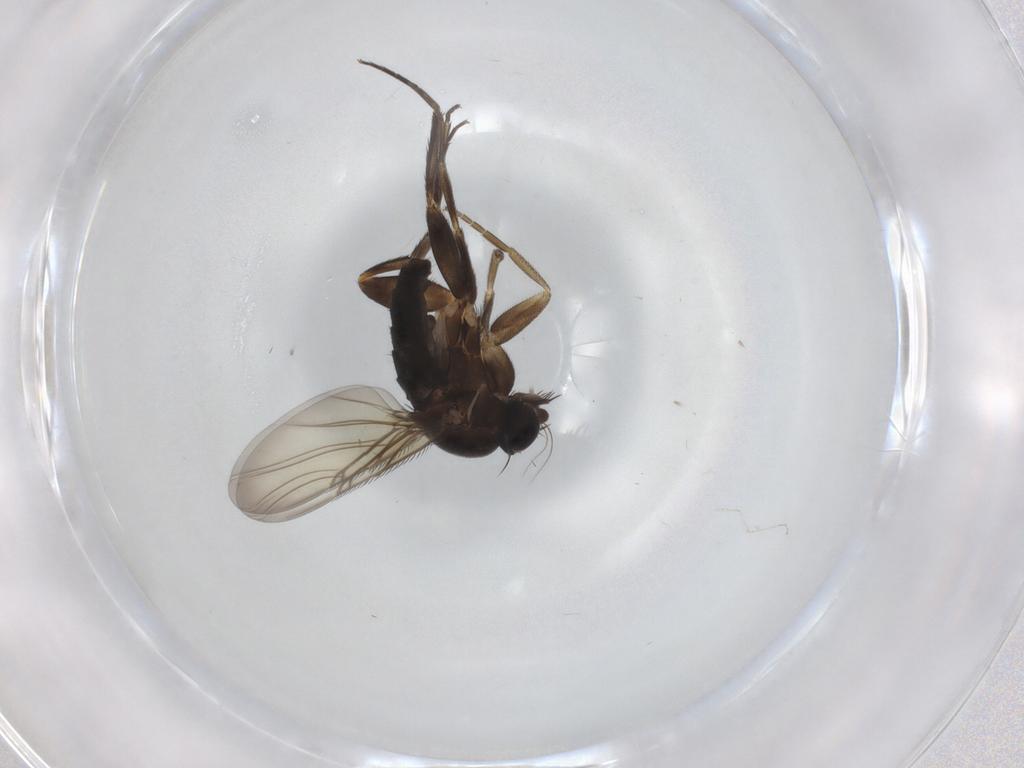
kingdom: Animalia
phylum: Arthropoda
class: Insecta
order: Diptera
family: Phoridae
